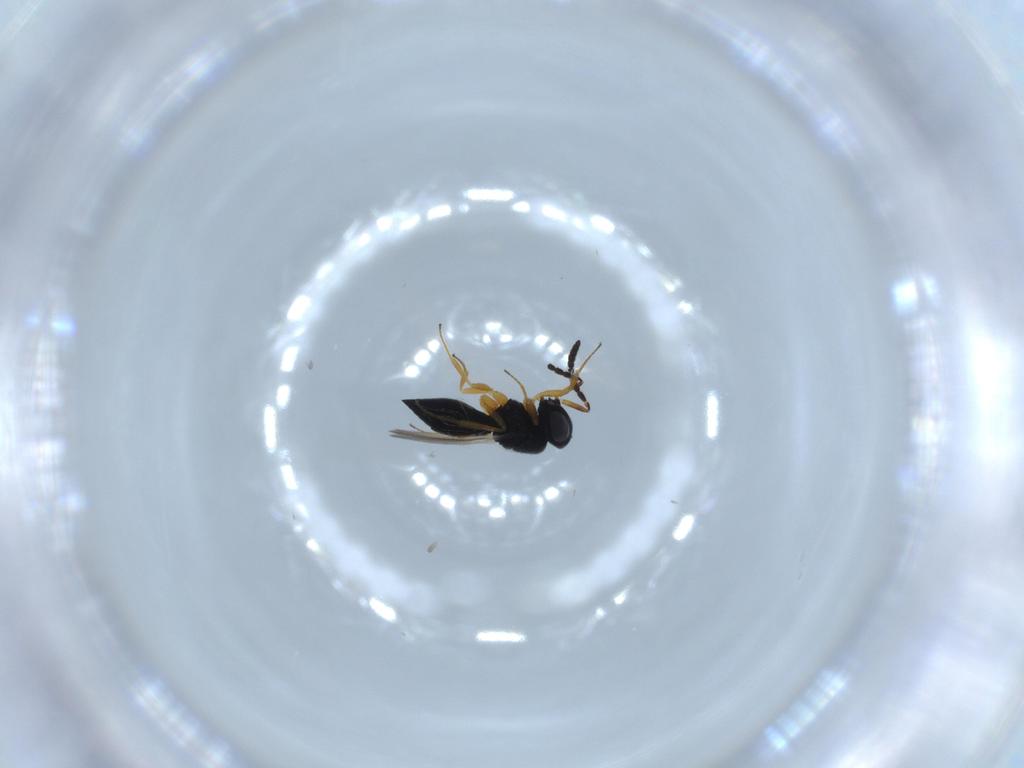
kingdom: Animalia
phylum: Arthropoda
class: Insecta
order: Hymenoptera
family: Scelionidae
